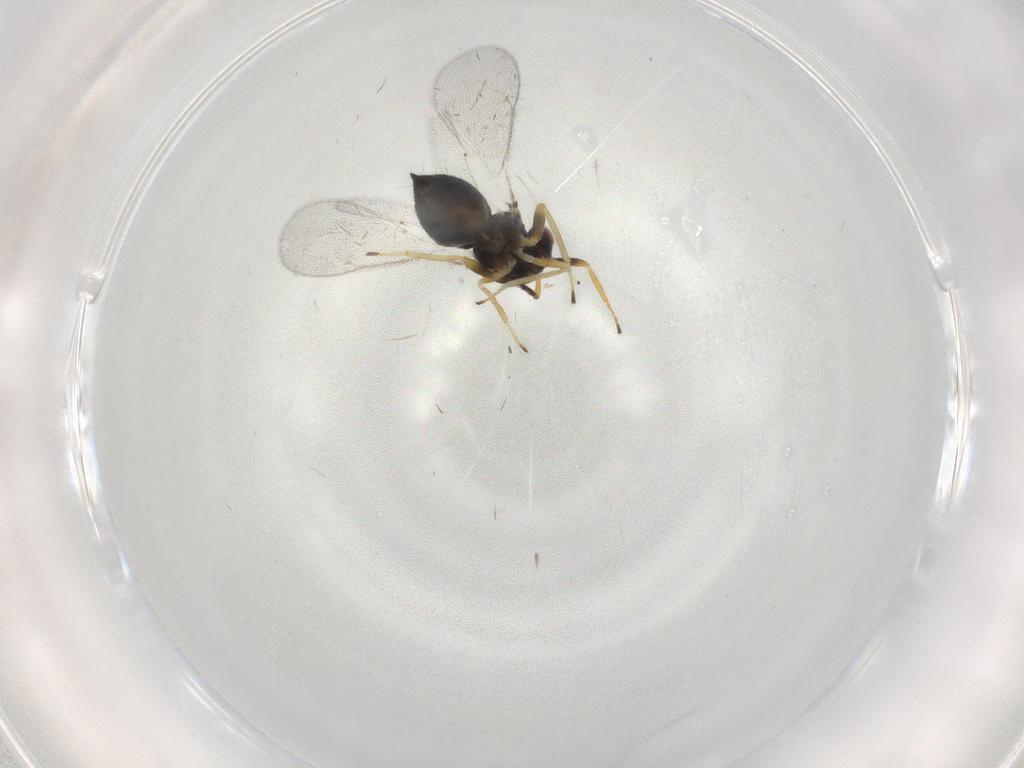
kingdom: Animalia
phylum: Arthropoda
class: Insecta
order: Hymenoptera
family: Eulophidae
